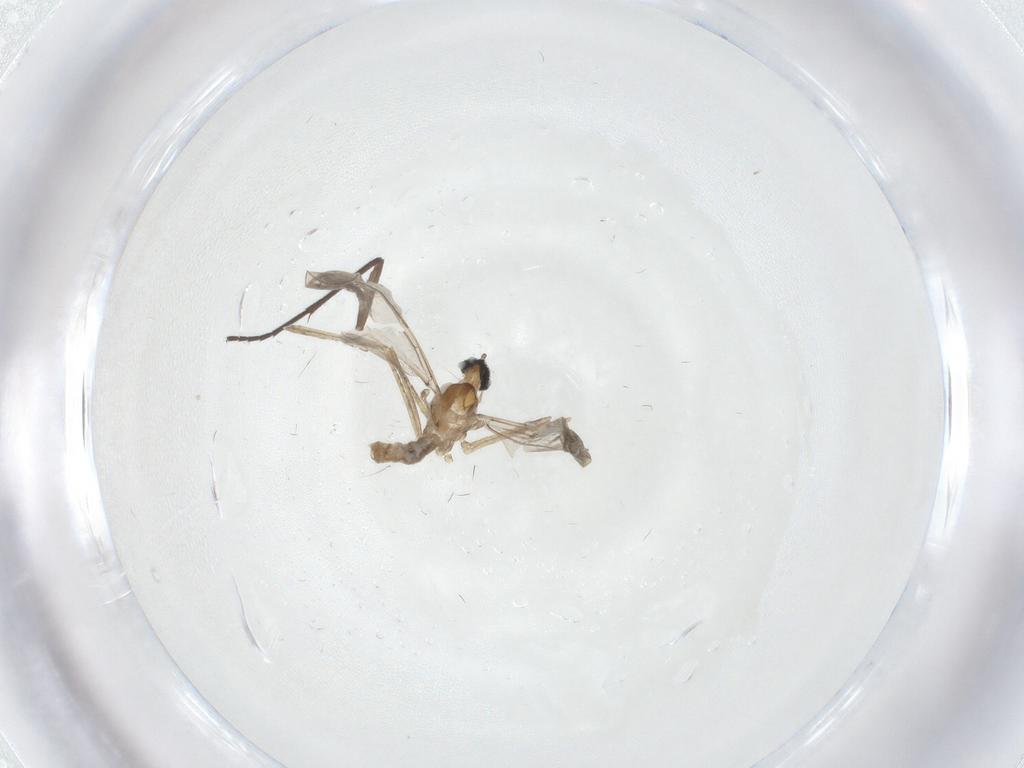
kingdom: Animalia
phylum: Arthropoda
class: Insecta
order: Diptera
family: Cecidomyiidae
